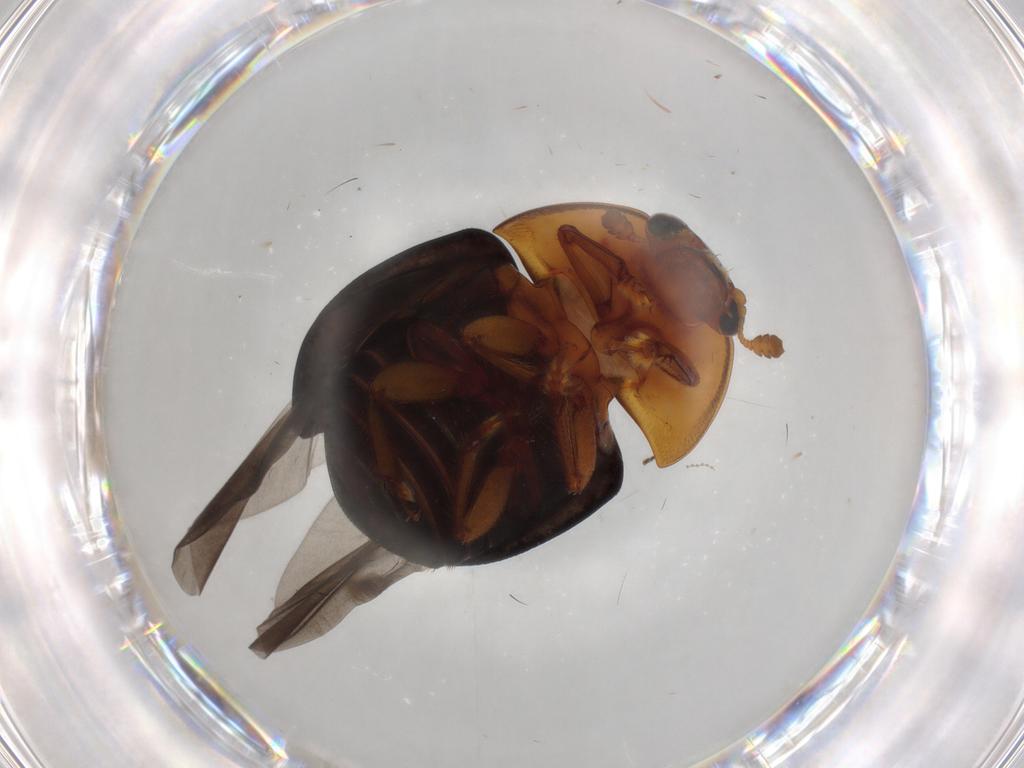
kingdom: Animalia
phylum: Arthropoda
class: Insecta
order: Coleoptera
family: Nitidulidae
